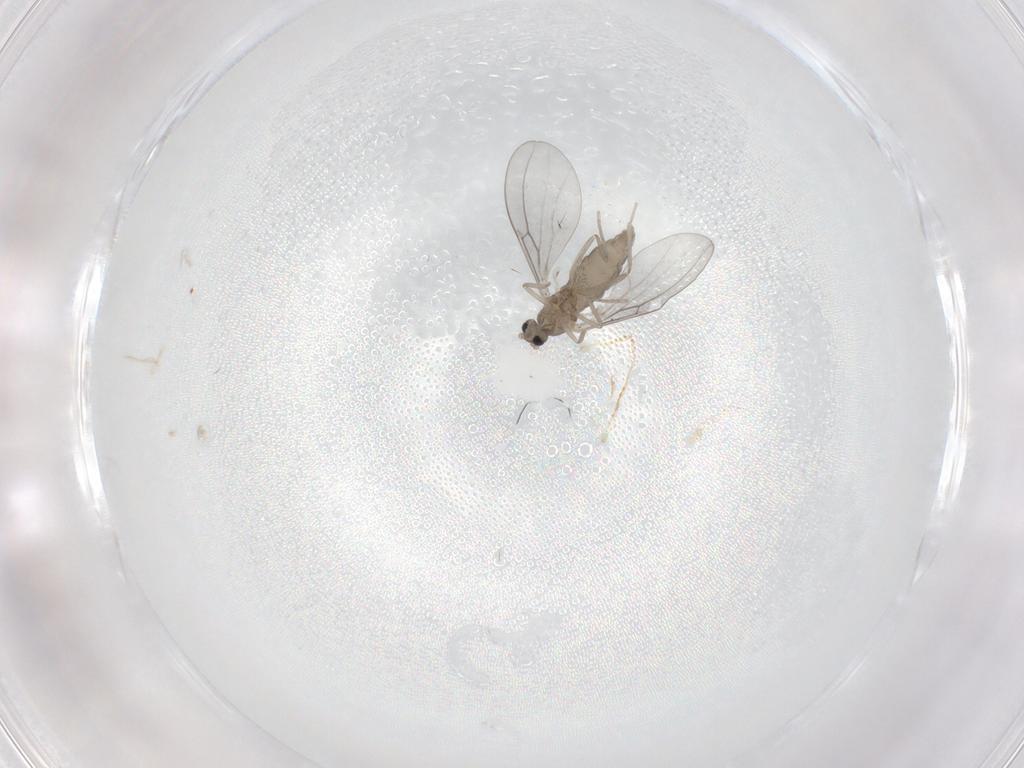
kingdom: Animalia
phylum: Arthropoda
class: Insecta
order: Diptera
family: Cecidomyiidae
